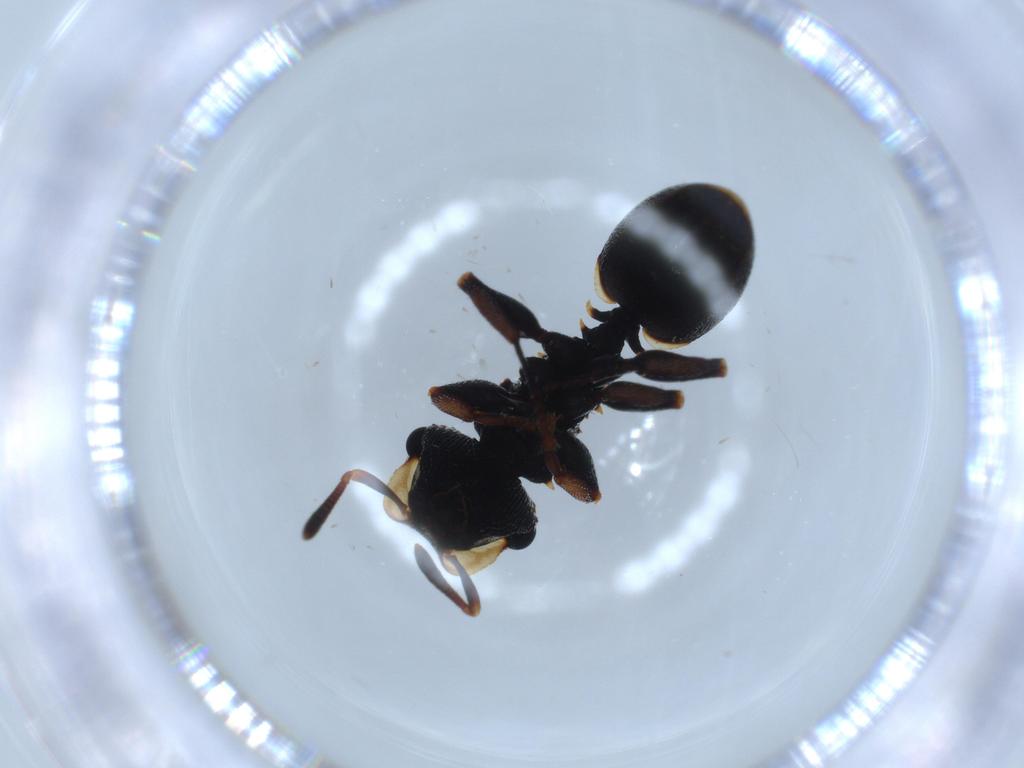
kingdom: Animalia
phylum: Arthropoda
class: Insecta
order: Hymenoptera
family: Formicidae
